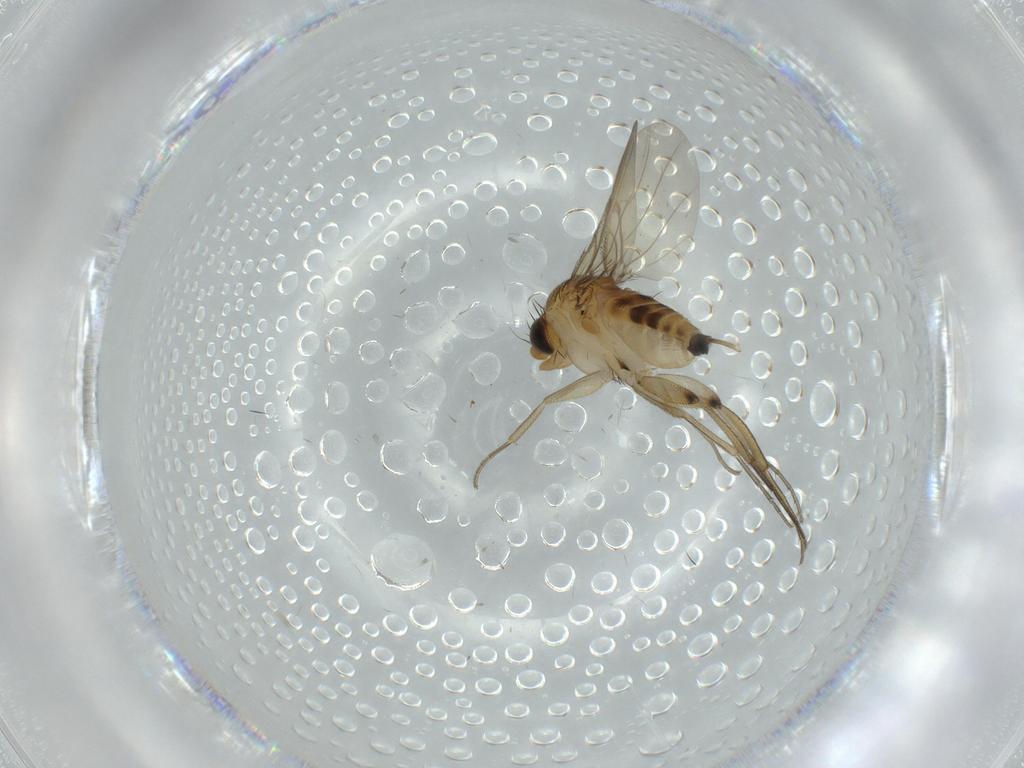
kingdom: Animalia
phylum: Arthropoda
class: Insecta
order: Diptera
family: Phoridae
